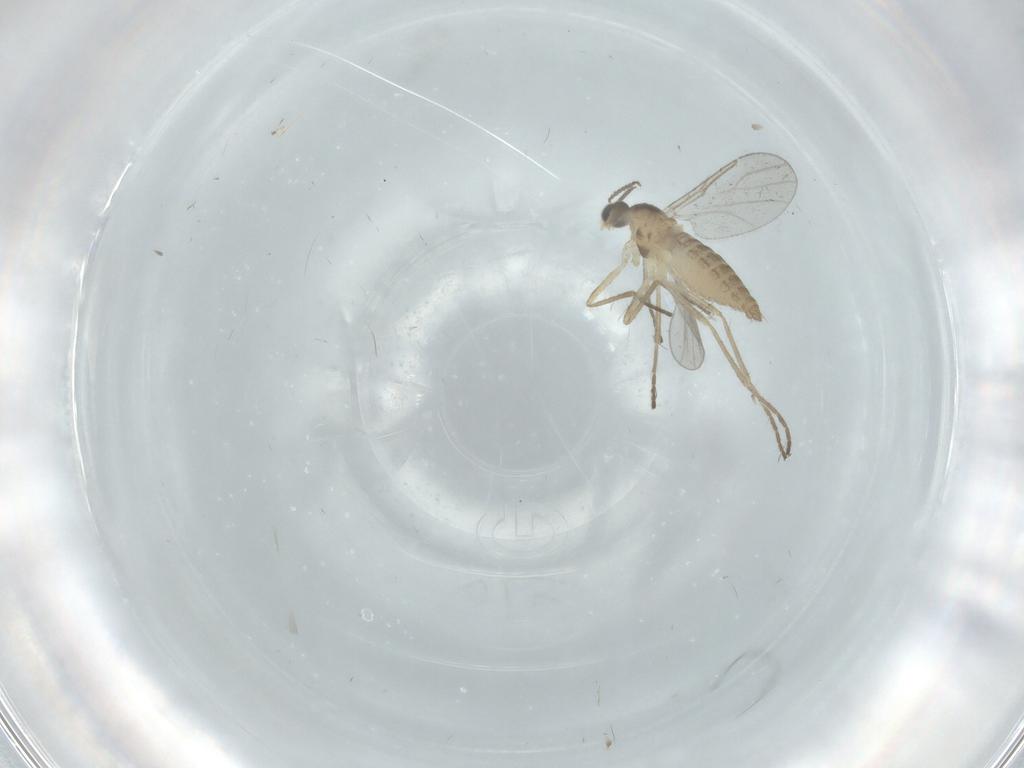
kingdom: Animalia
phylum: Arthropoda
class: Insecta
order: Diptera
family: Cecidomyiidae
